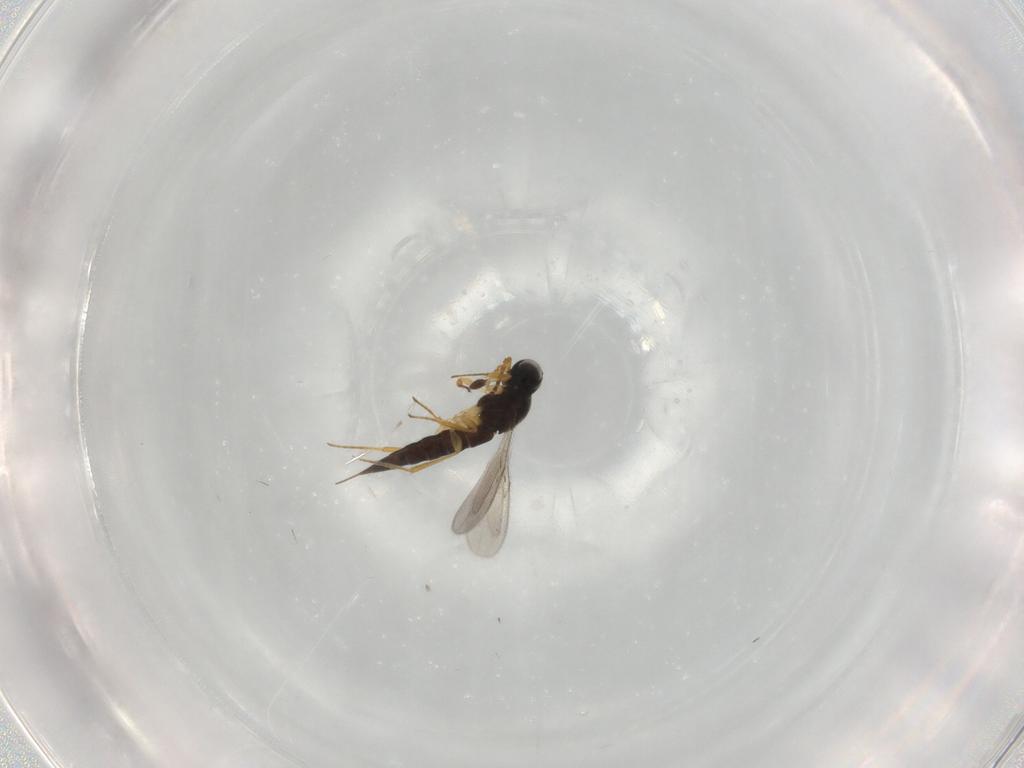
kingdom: Animalia
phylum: Arthropoda
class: Insecta
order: Hymenoptera
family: Scelionidae
